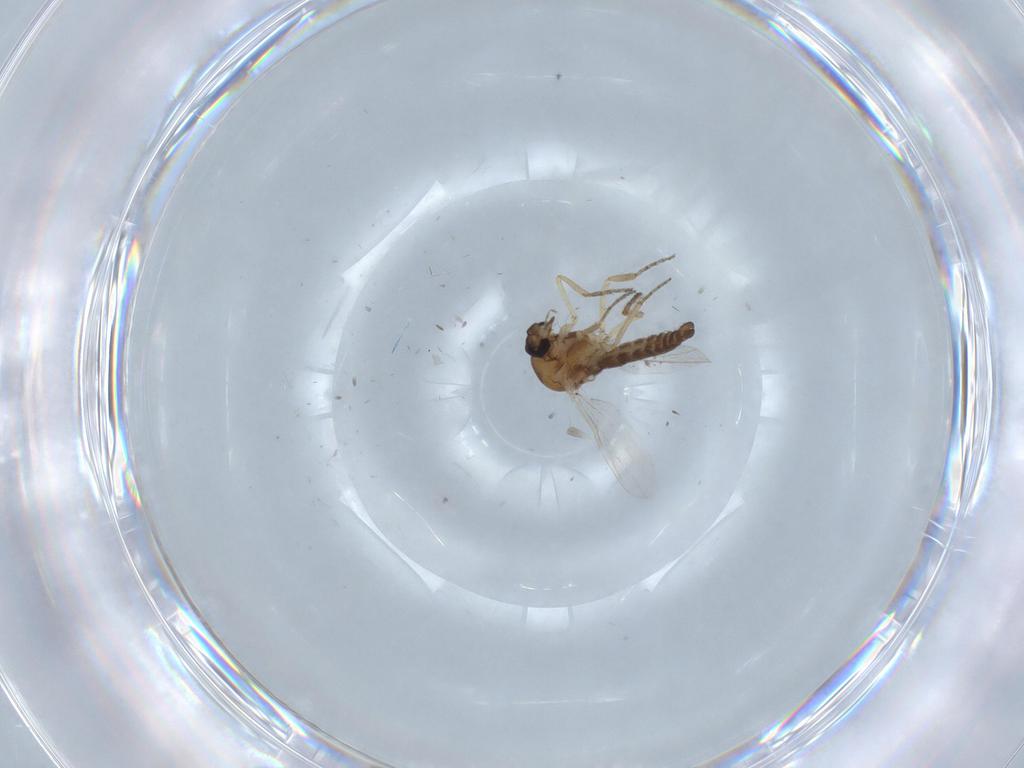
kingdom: Animalia
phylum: Arthropoda
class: Insecta
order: Diptera
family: Ceratopogonidae
